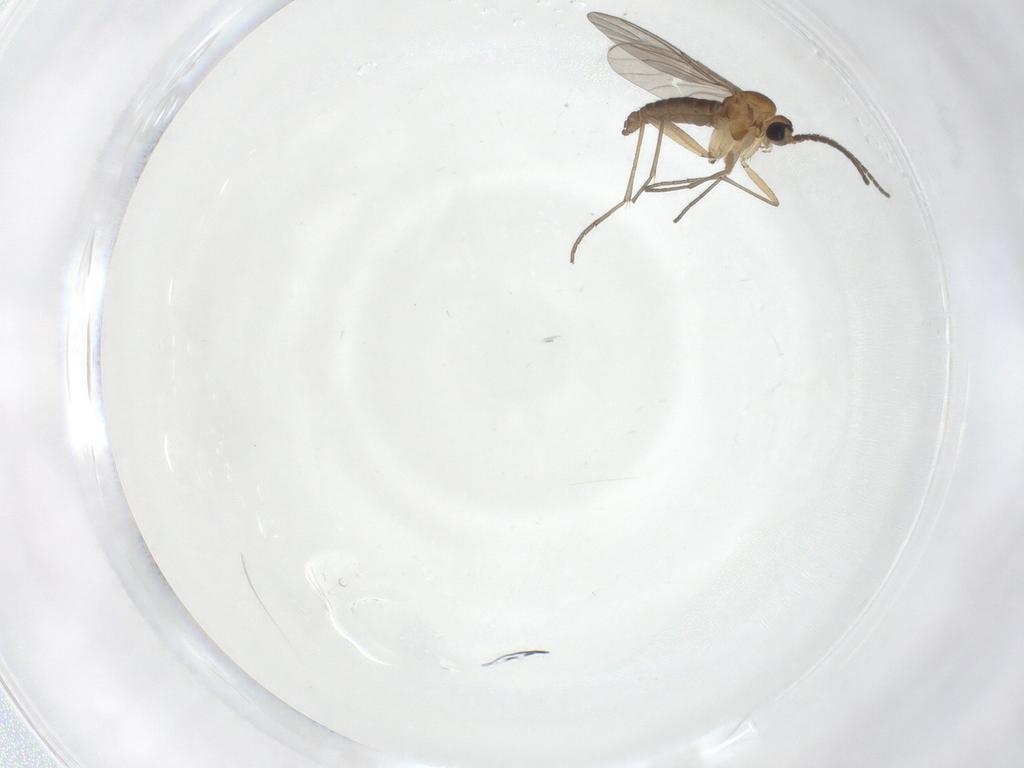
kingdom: Animalia
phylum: Arthropoda
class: Insecta
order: Diptera
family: Sciaridae
